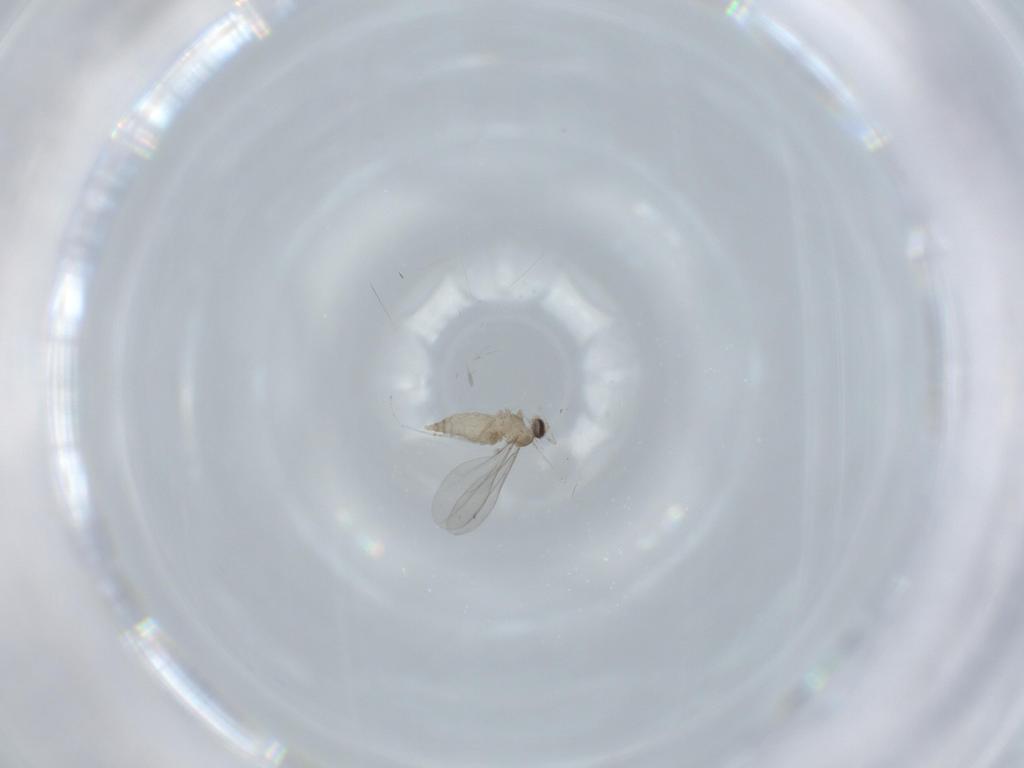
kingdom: Animalia
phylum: Arthropoda
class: Insecta
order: Diptera
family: Cecidomyiidae
